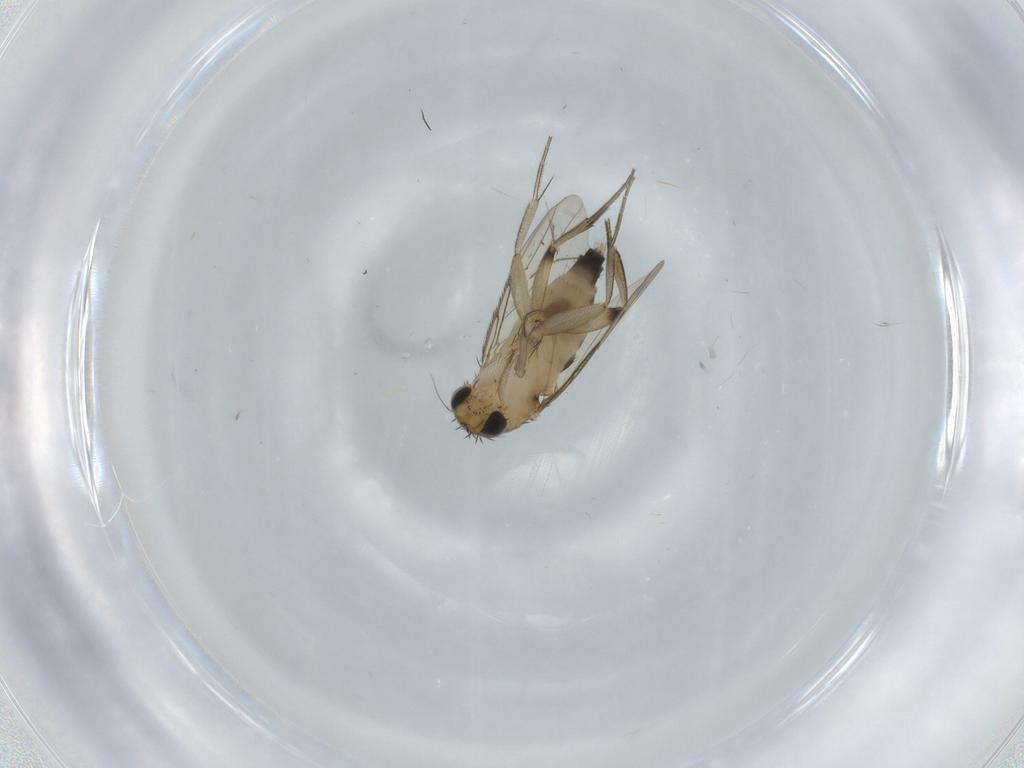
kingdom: Animalia
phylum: Arthropoda
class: Insecta
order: Diptera
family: Phoridae
